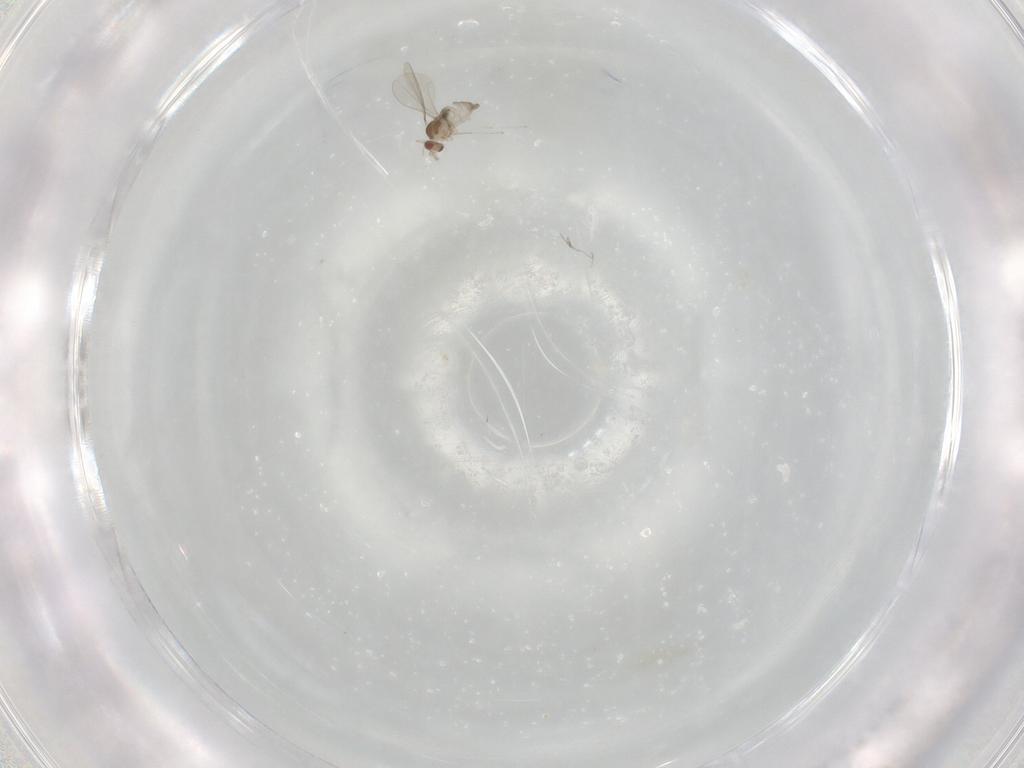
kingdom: Animalia
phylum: Arthropoda
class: Insecta
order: Diptera
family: Cecidomyiidae
